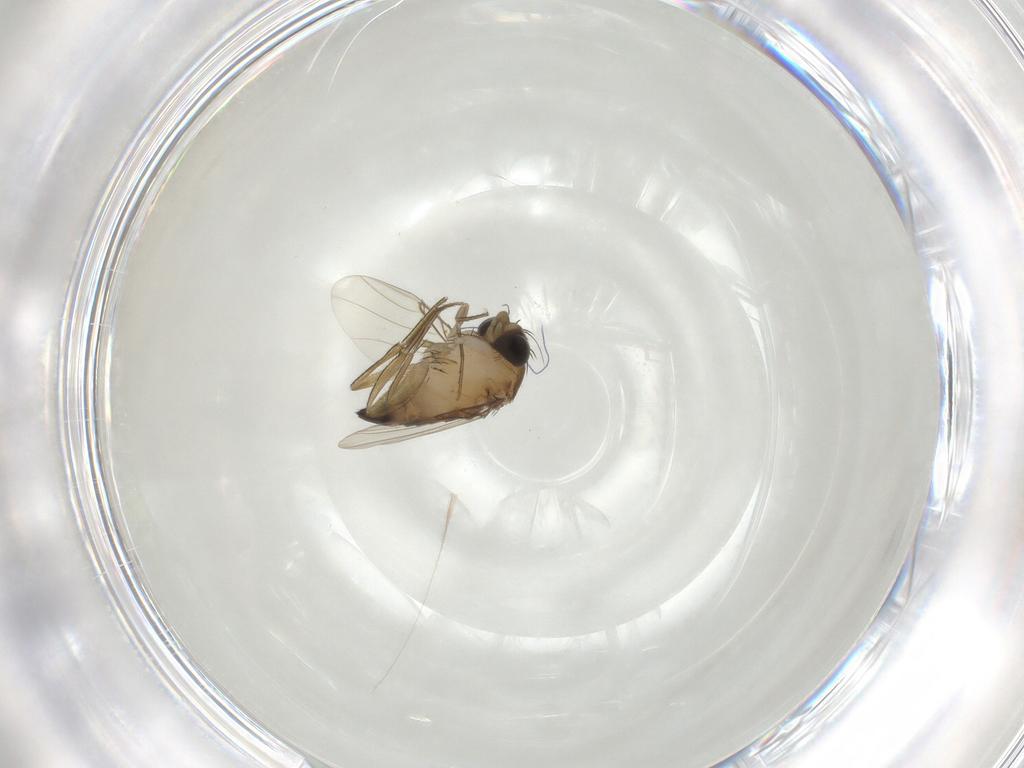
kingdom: Animalia
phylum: Arthropoda
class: Insecta
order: Diptera
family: Phoridae
